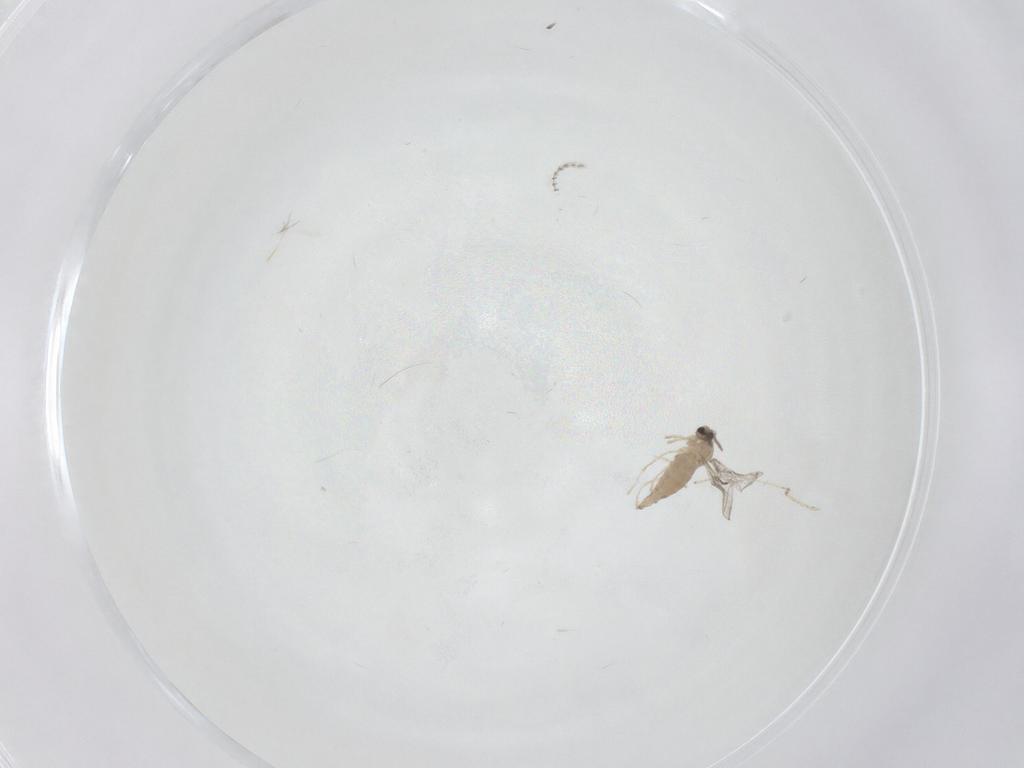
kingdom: Animalia
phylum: Arthropoda
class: Insecta
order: Diptera
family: Cecidomyiidae
